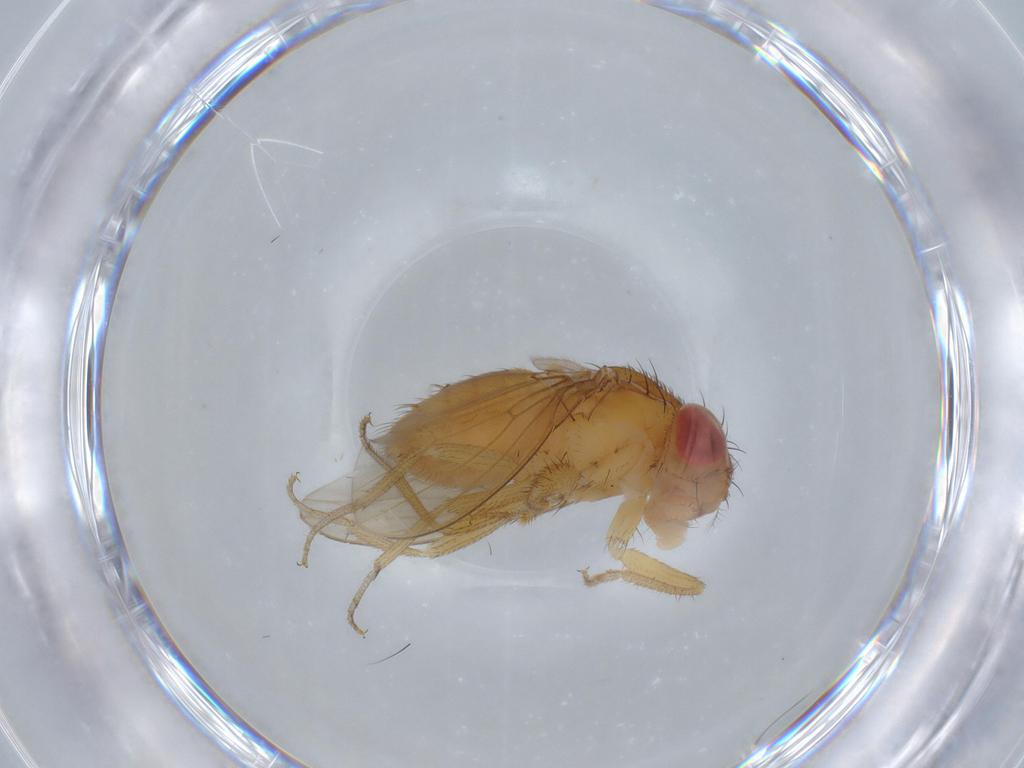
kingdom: Animalia
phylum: Arthropoda
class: Insecta
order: Diptera
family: Drosophilidae
